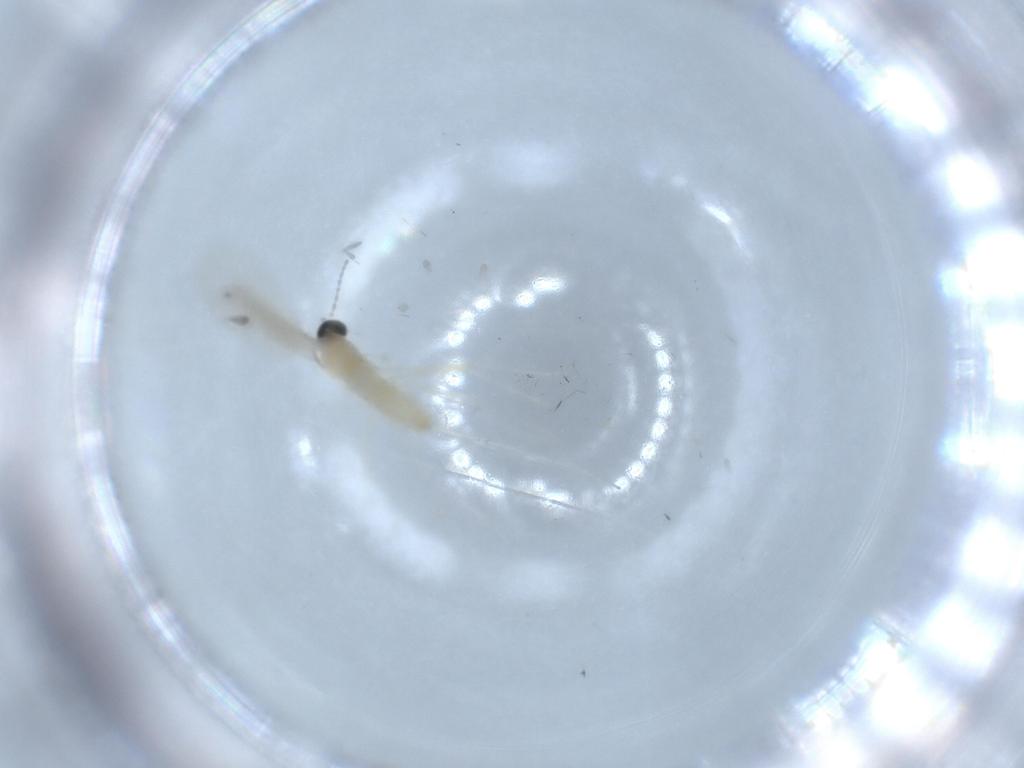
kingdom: Animalia
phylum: Arthropoda
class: Insecta
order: Diptera
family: Cecidomyiidae
